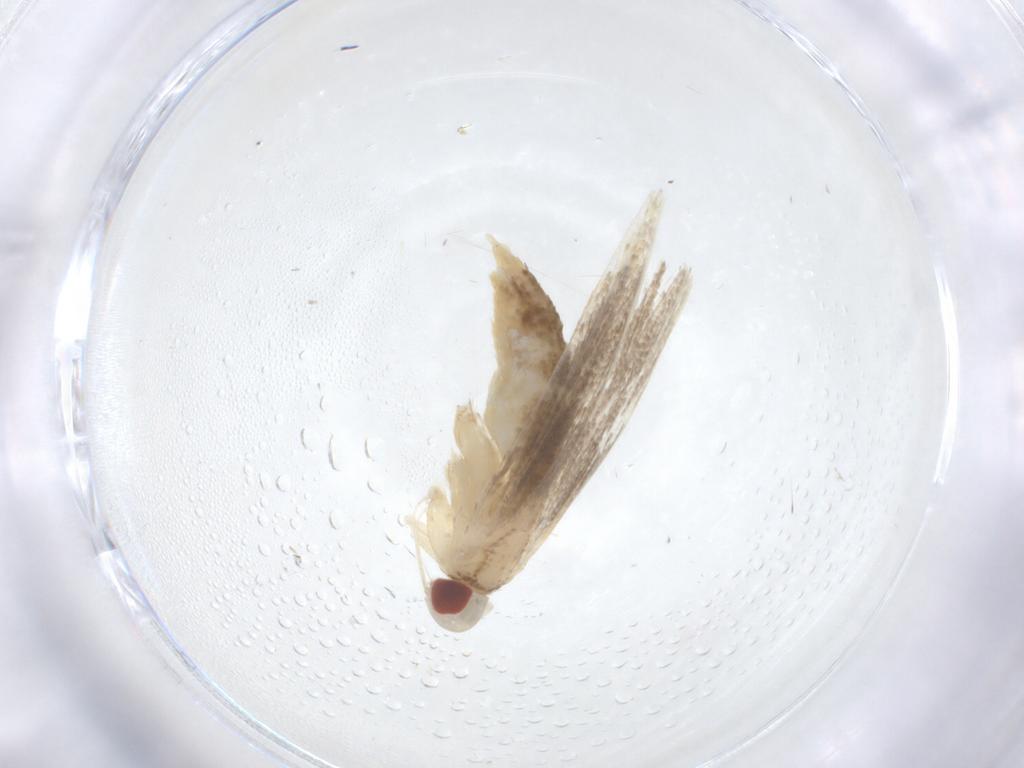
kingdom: Animalia
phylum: Arthropoda
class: Insecta
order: Lepidoptera
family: Cosmopterigidae
